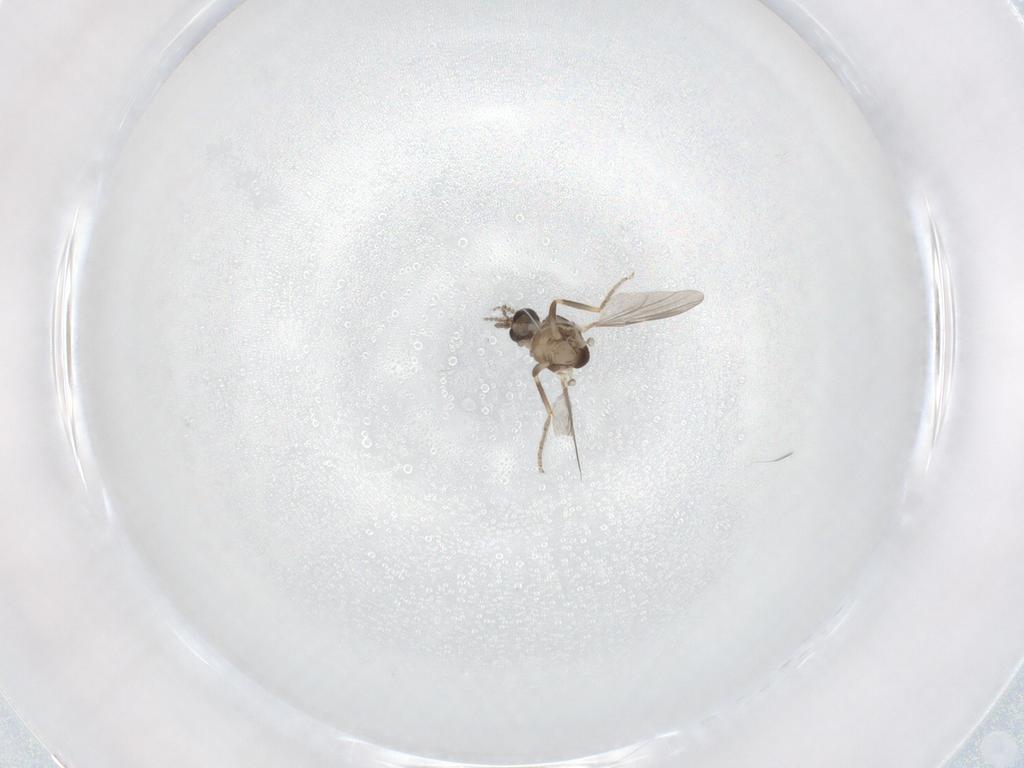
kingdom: Animalia
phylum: Arthropoda
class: Insecta
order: Diptera
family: Ceratopogonidae
